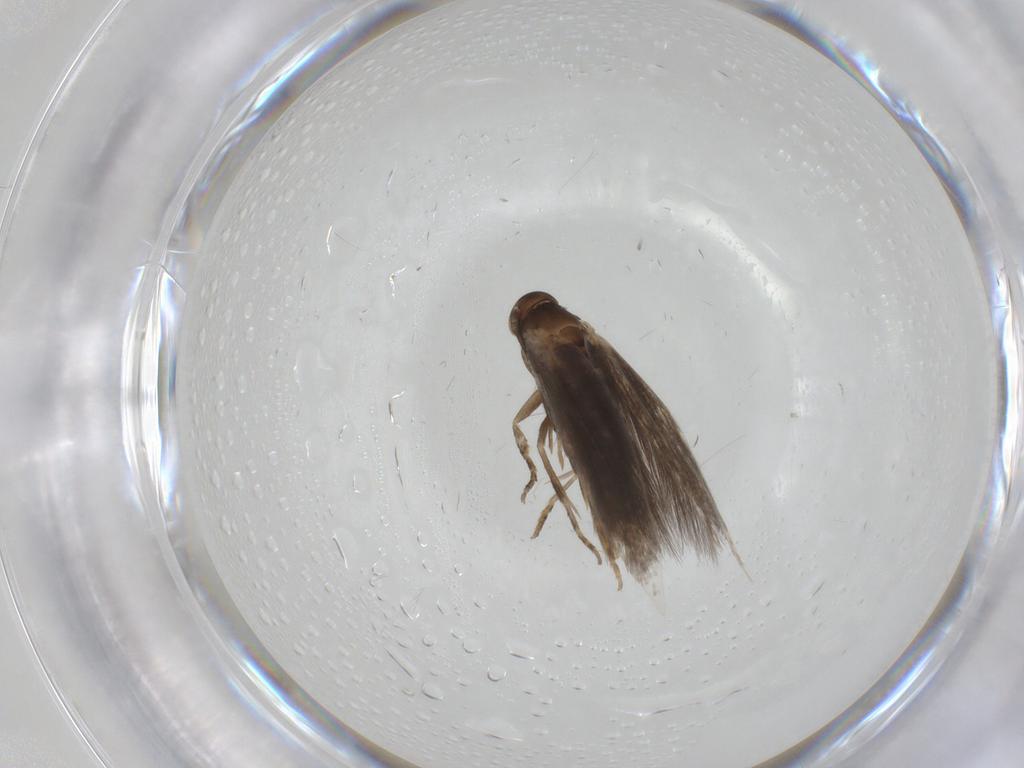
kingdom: Animalia
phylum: Arthropoda
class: Insecta
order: Lepidoptera
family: Elachistidae
